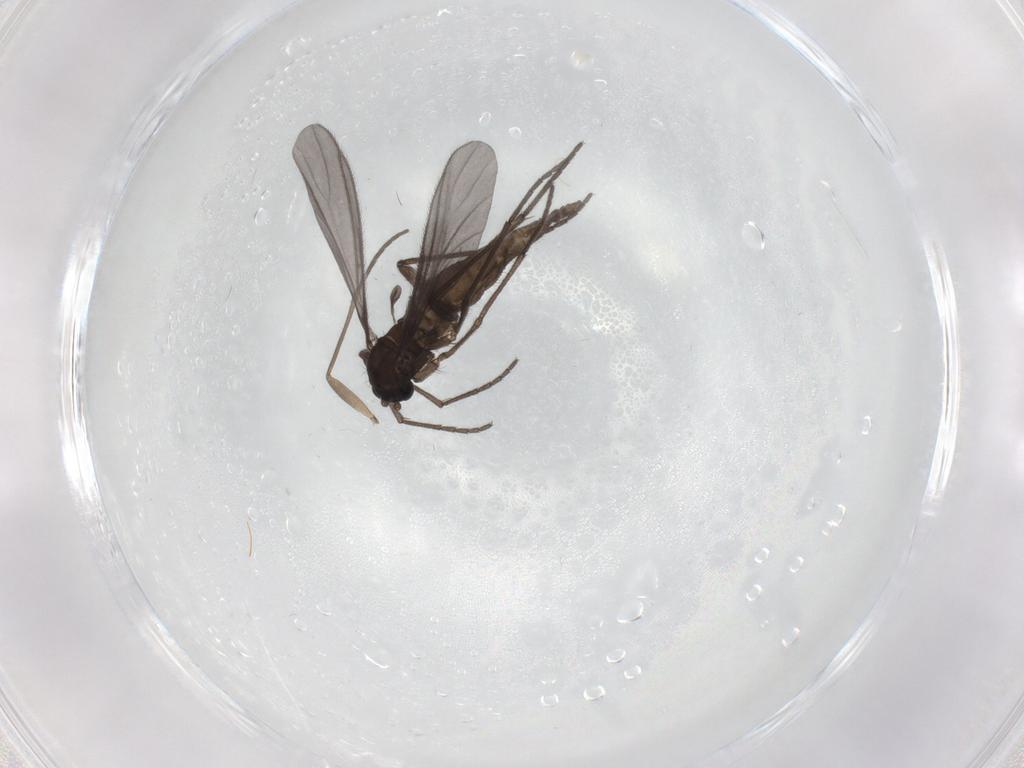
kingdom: Animalia
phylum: Arthropoda
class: Insecta
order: Diptera
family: Sciaridae
